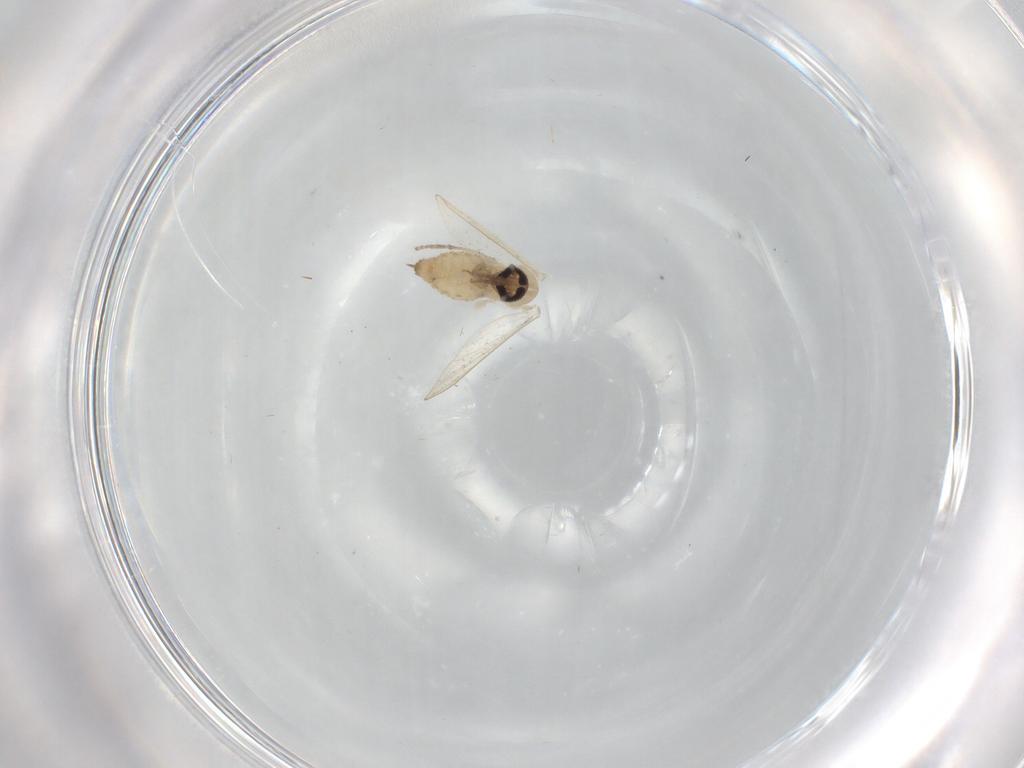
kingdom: Animalia
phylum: Arthropoda
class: Insecta
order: Diptera
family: Psychodidae
